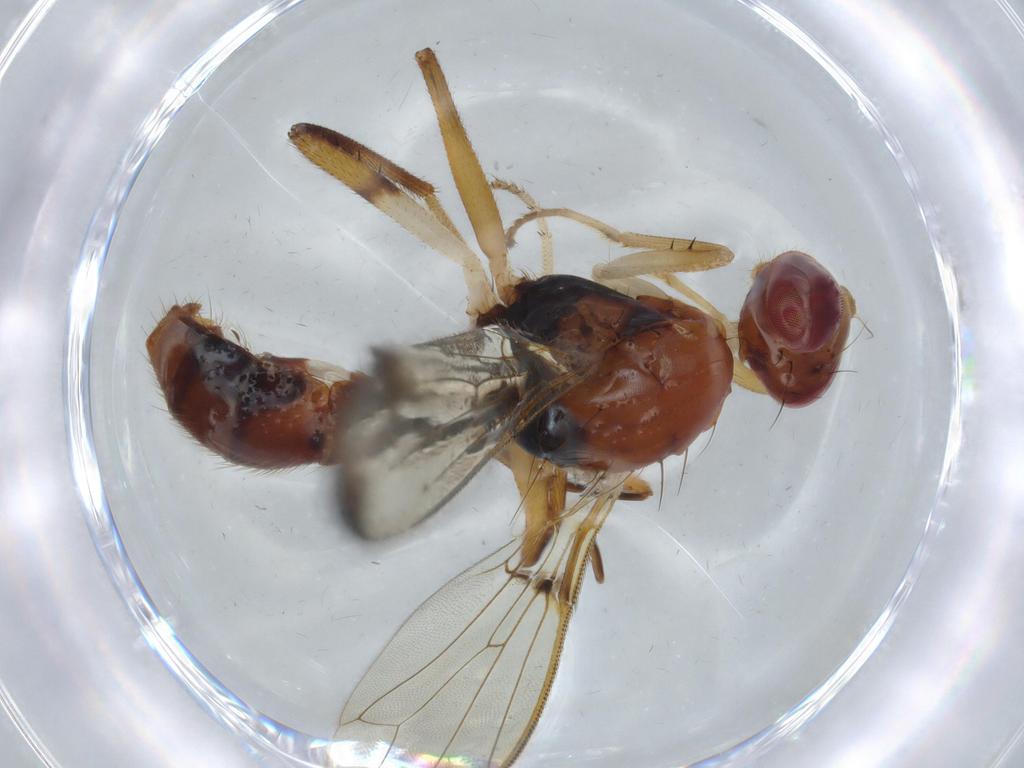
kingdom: Animalia
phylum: Arthropoda
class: Insecta
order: Diptera
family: Richardiidae
